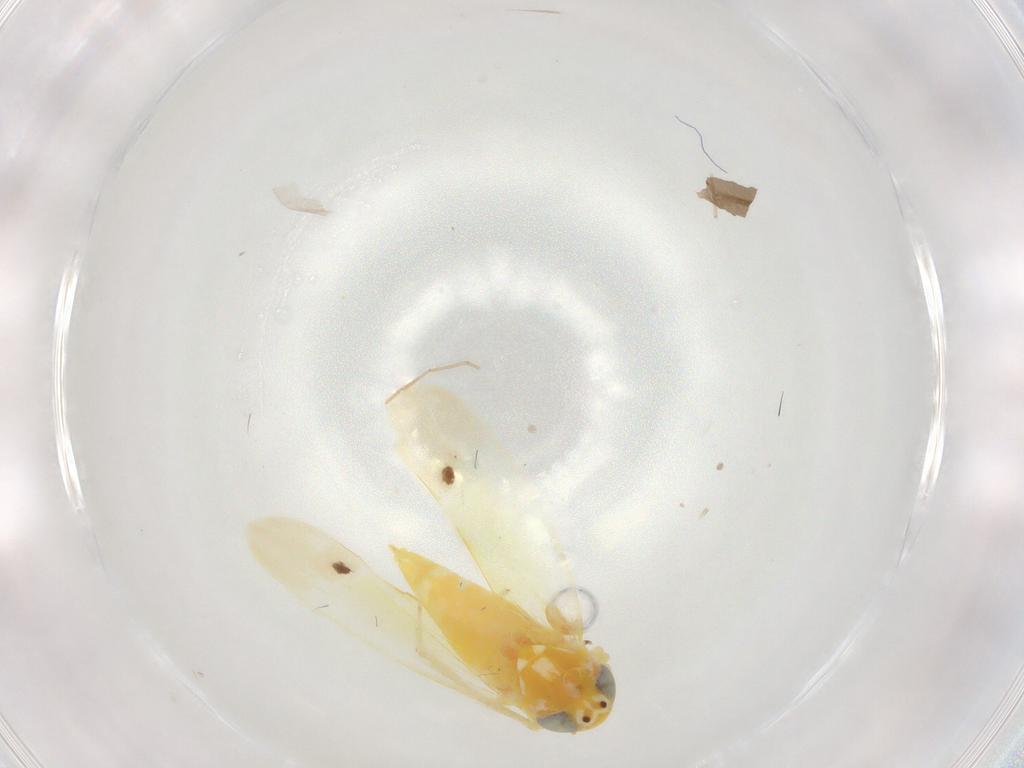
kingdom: Animalia
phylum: Arthropoda
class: Insecta
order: Hemiptera
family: Cicadellidae
